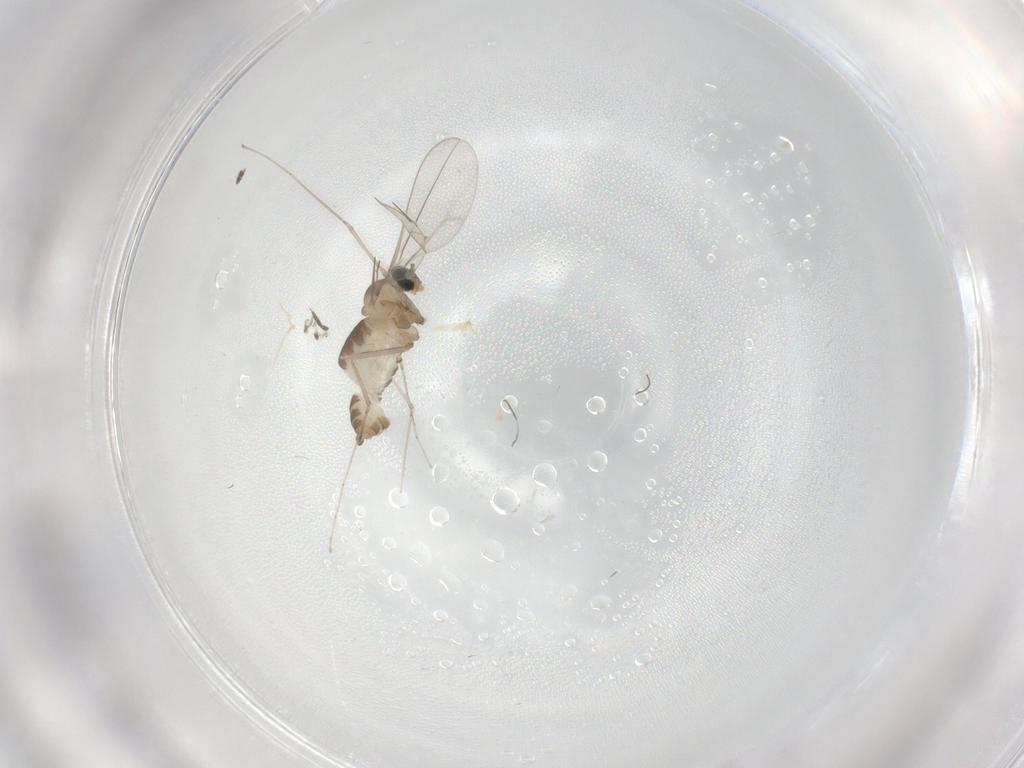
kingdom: Animalia
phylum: Arthropoda
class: Insecta
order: Diptera
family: Cecidomyiidae
